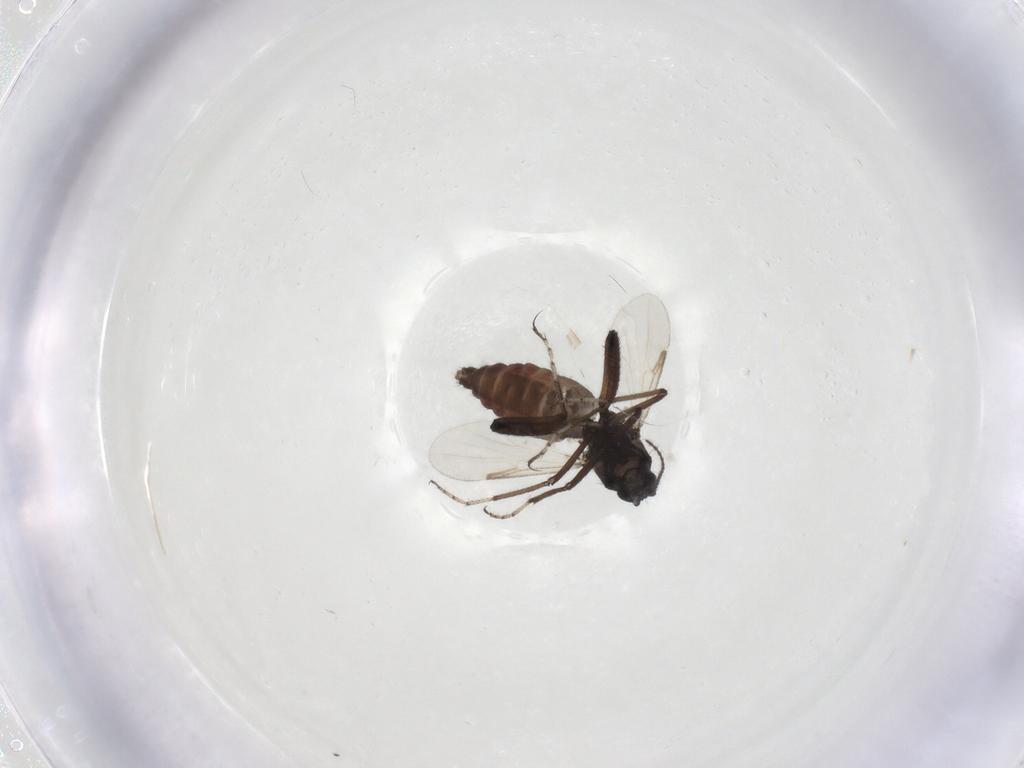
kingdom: Animalia
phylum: Arthropoda
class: Insecta
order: Diptera
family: Ceratopogonidae
